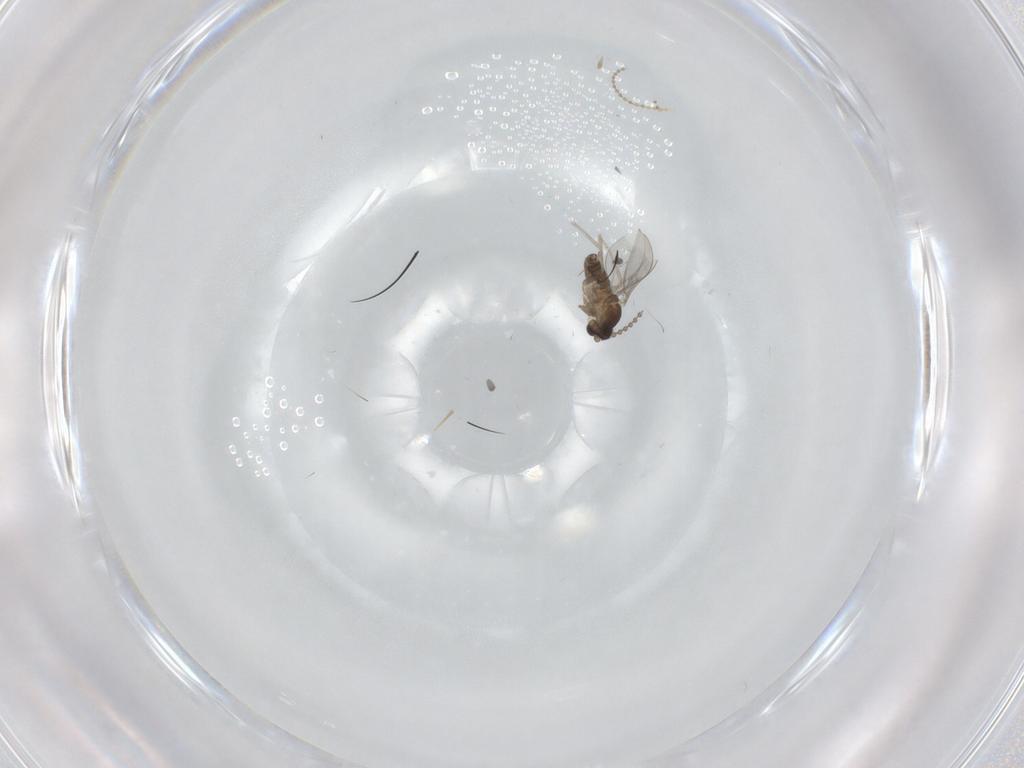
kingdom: Animalia
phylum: Arthropoda
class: Insecta
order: Diptera
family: Cecidomyiidae
